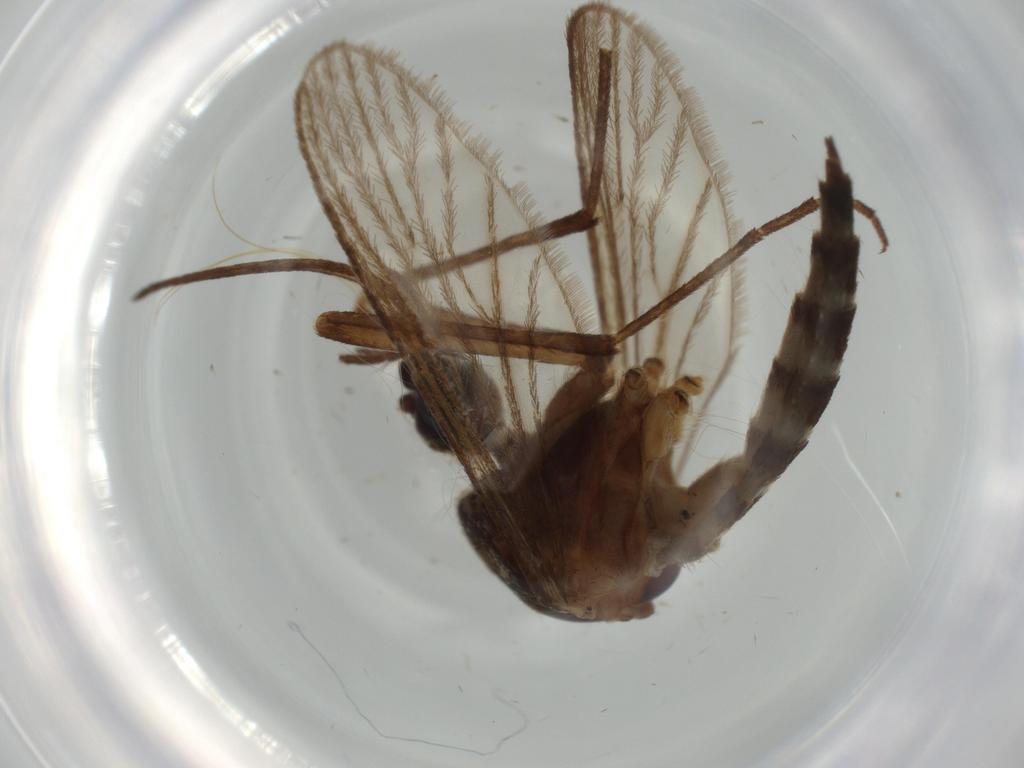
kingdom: Animalia
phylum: Arthropoda
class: Insecta
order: Diptera
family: Culicidae
